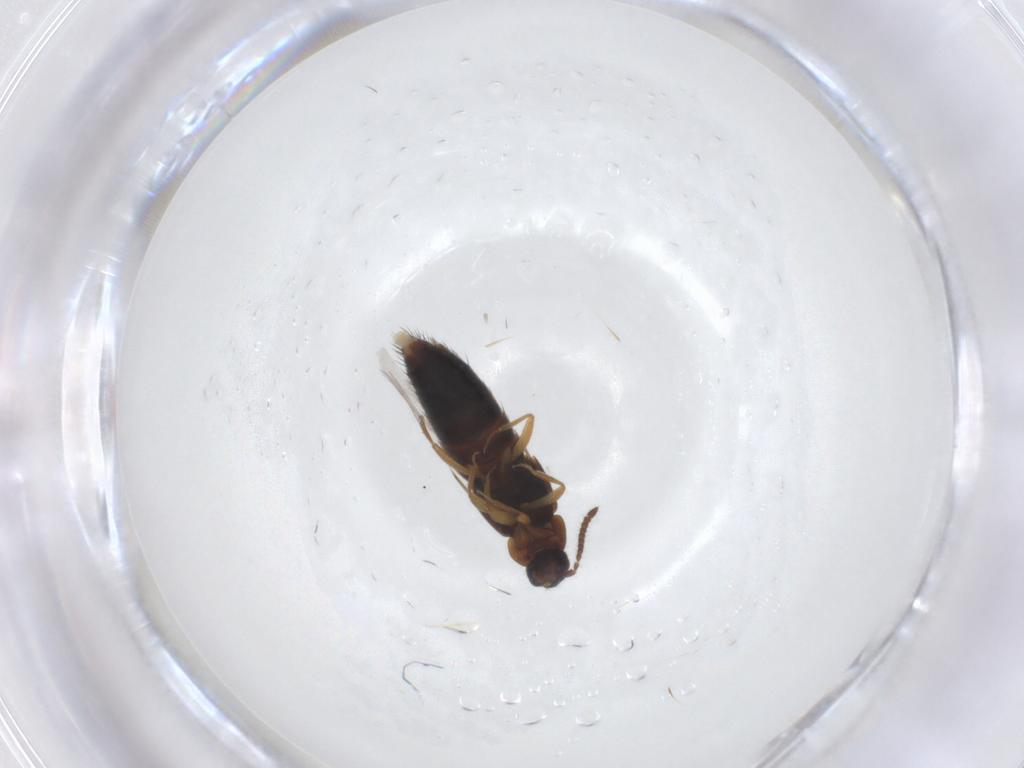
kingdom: Animalia
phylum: Arthropoda
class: Insecta
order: Coleoptera
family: Staphylinidae
